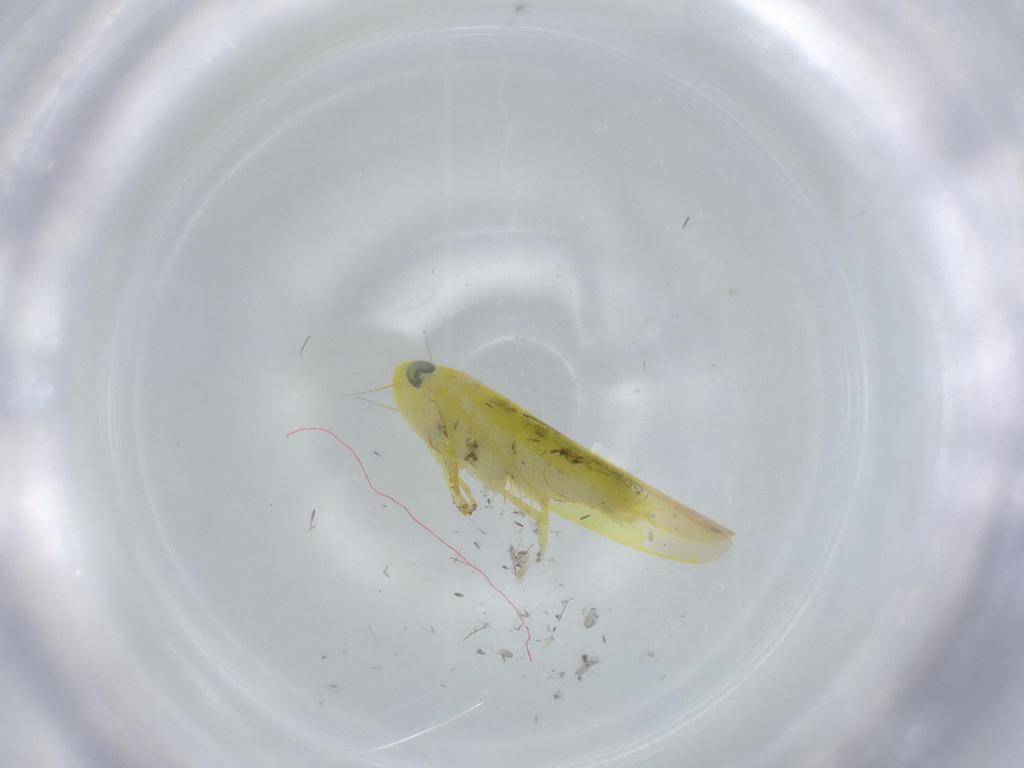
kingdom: Animalia
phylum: Arthropoda
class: Insecta
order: Hemiptera
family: Cicadellidae
